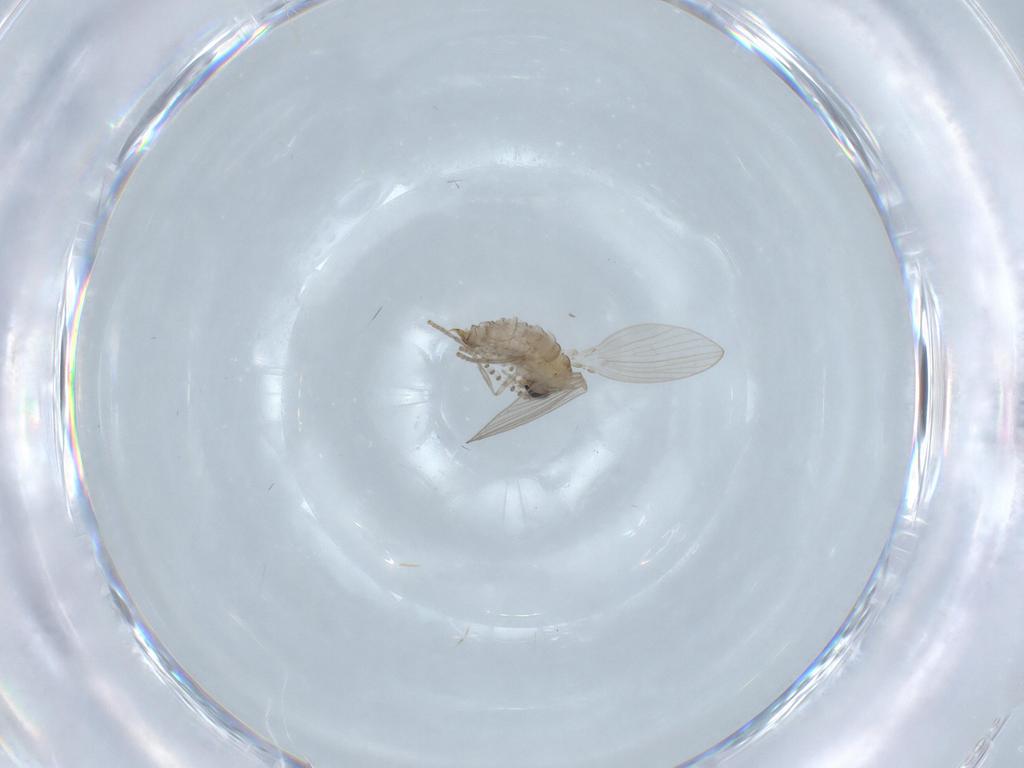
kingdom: Animalia
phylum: Arthropoda
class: Insecta
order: Diptera
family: Psychodidae
